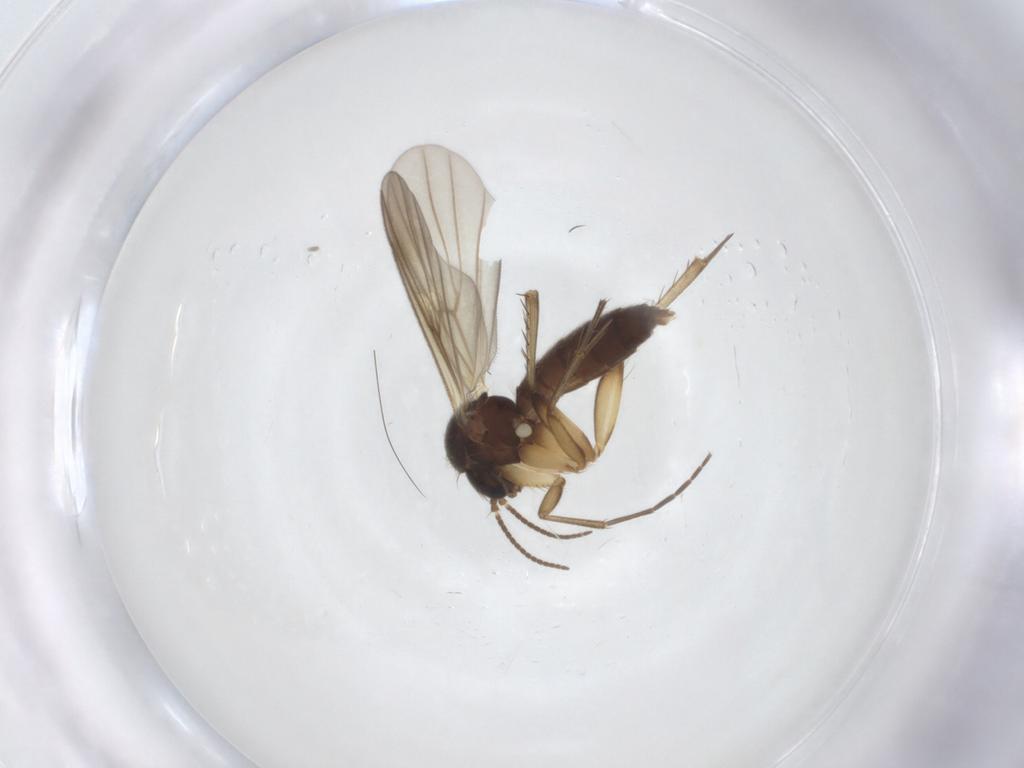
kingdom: Animalia
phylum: Arthropoda
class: Insecta
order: Diptera
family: Mycetophilidae
